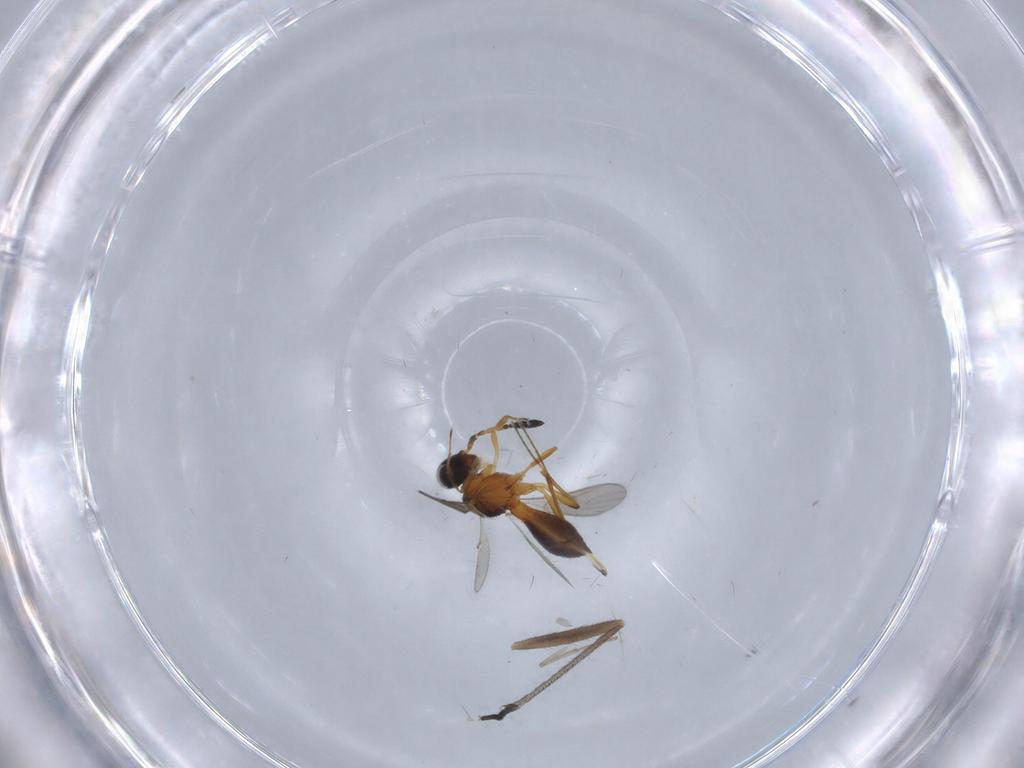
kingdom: Animalia
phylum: Arthropoda
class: Insecta
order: Hymenoptera
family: Scelionidae
